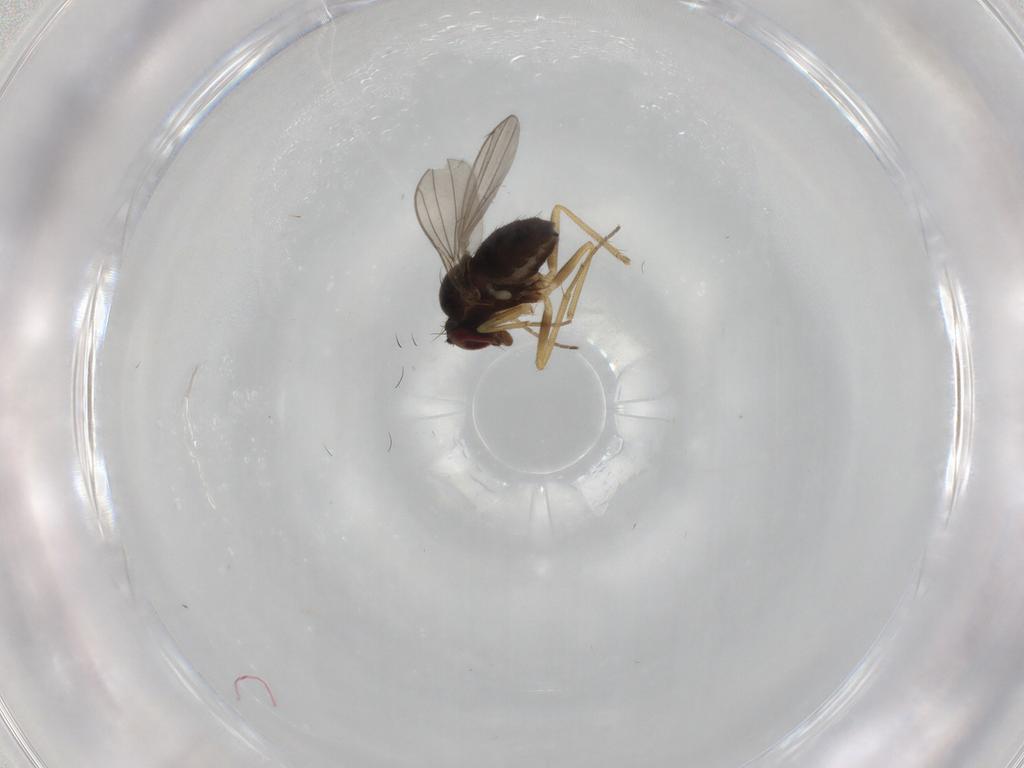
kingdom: Animalia
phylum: Arthropoda
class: Insecta
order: Diptera
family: Dolichopodidae
